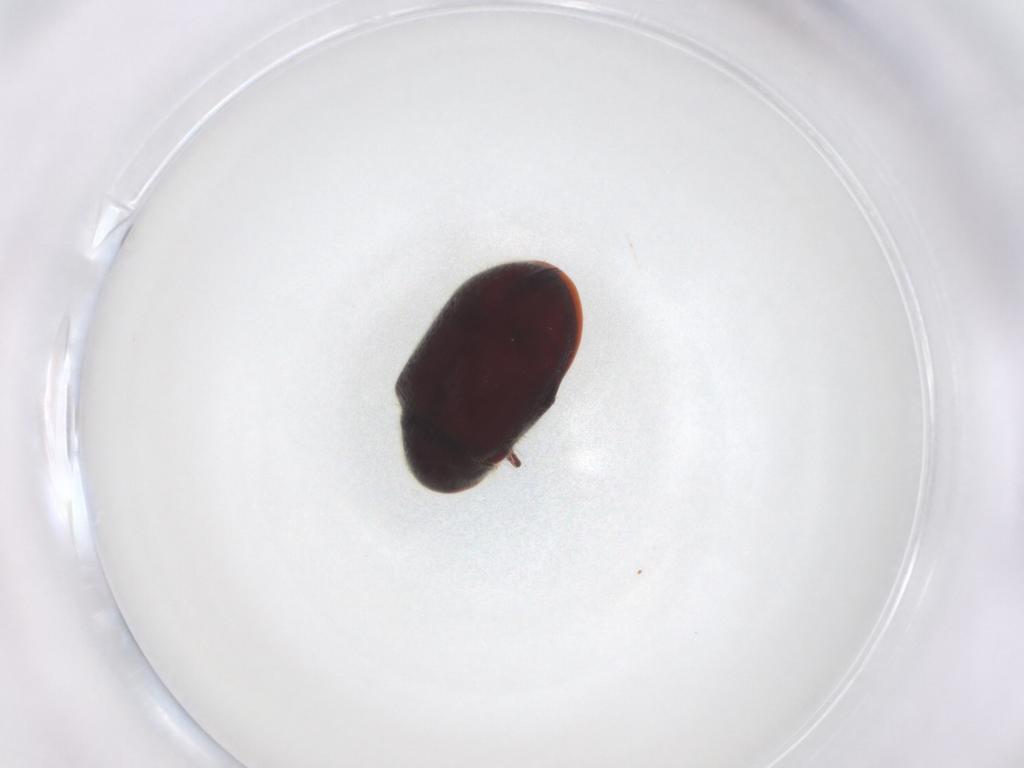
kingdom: Animalia
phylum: Arthropoda
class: Insecta
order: Coleoptera
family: Ptinidae
